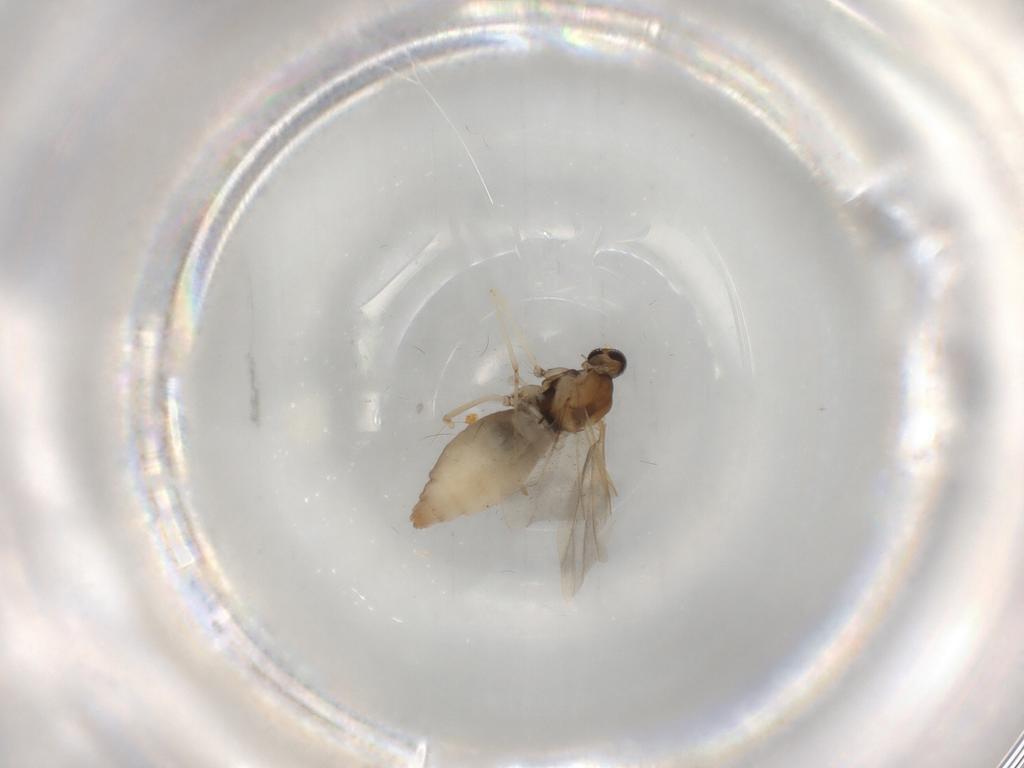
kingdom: Animalia
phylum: Arthropoda
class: Insecta
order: Diptera
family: Cecidomyiidae
